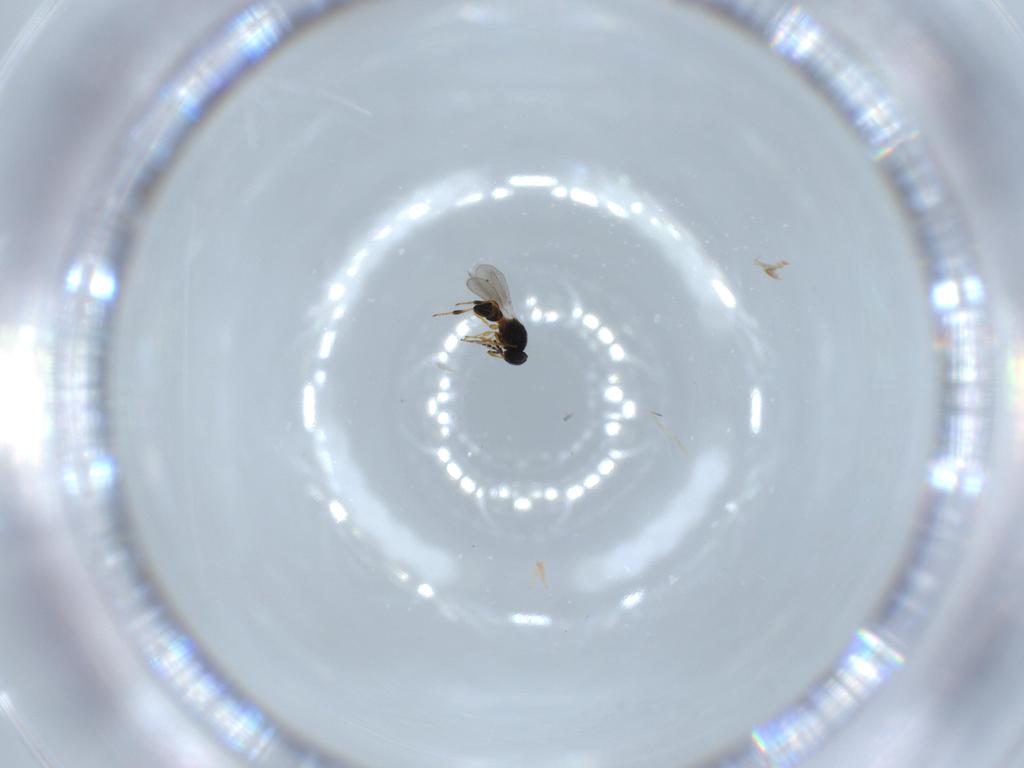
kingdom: Animalia
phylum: Arthropoda
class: Insecta
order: Hymenoptera
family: Platygastridae
